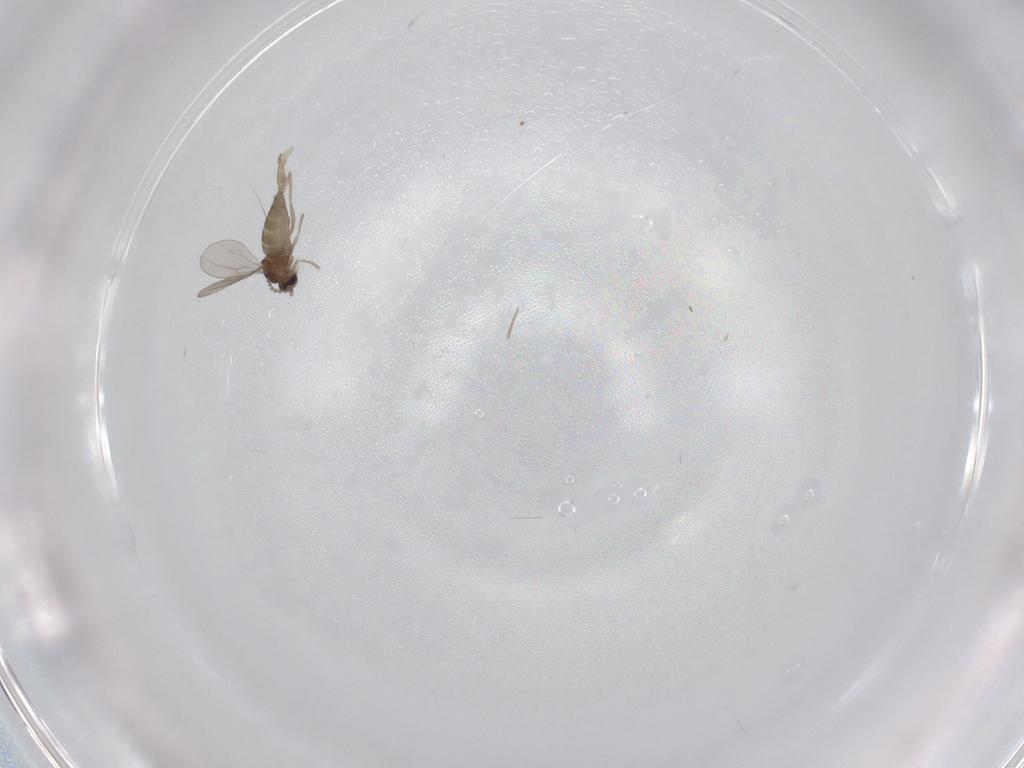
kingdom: Animalia
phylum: Arthropoda
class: Insecta
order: Diptera
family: Cecidomyiidae
